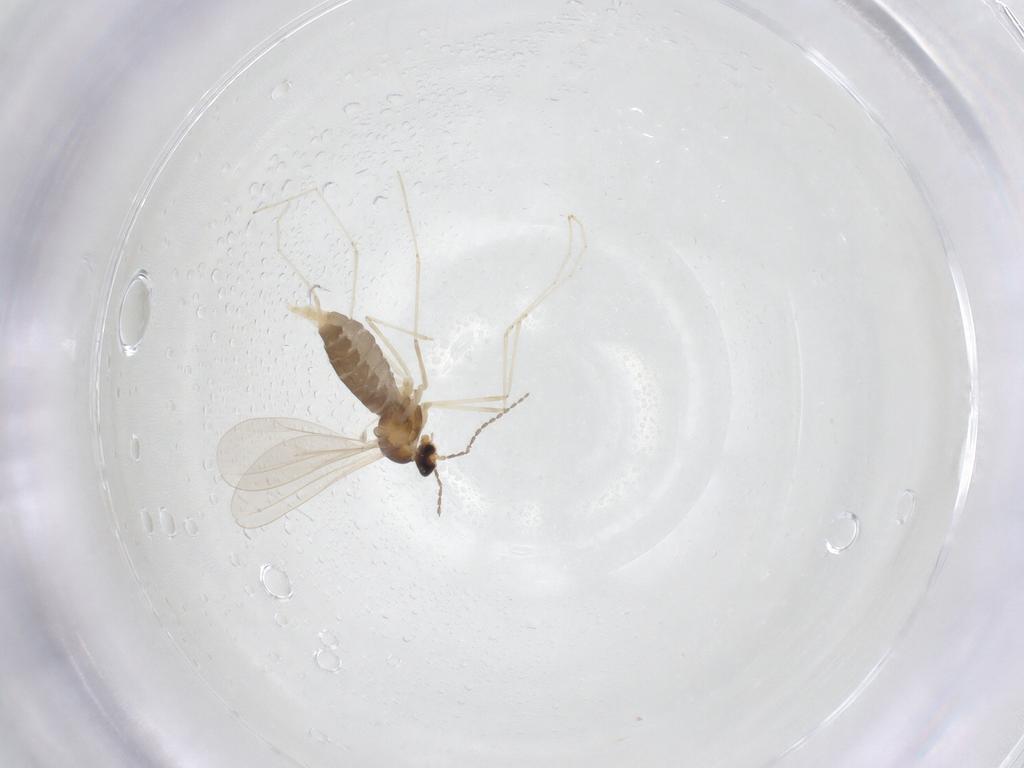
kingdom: Animalia
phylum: Arthropoda
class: Insecta
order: Diptera
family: Cecidomyiidae
